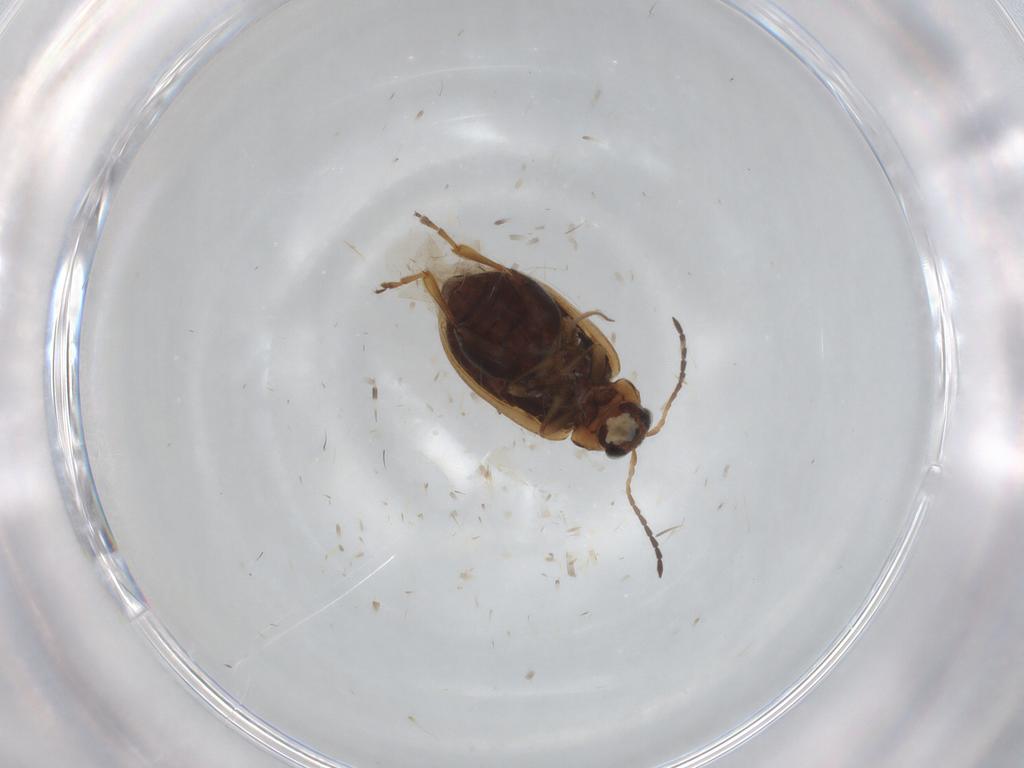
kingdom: Animalia
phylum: Arthropoda
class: Insecta
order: Coleoptera
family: Chrysomelidae
